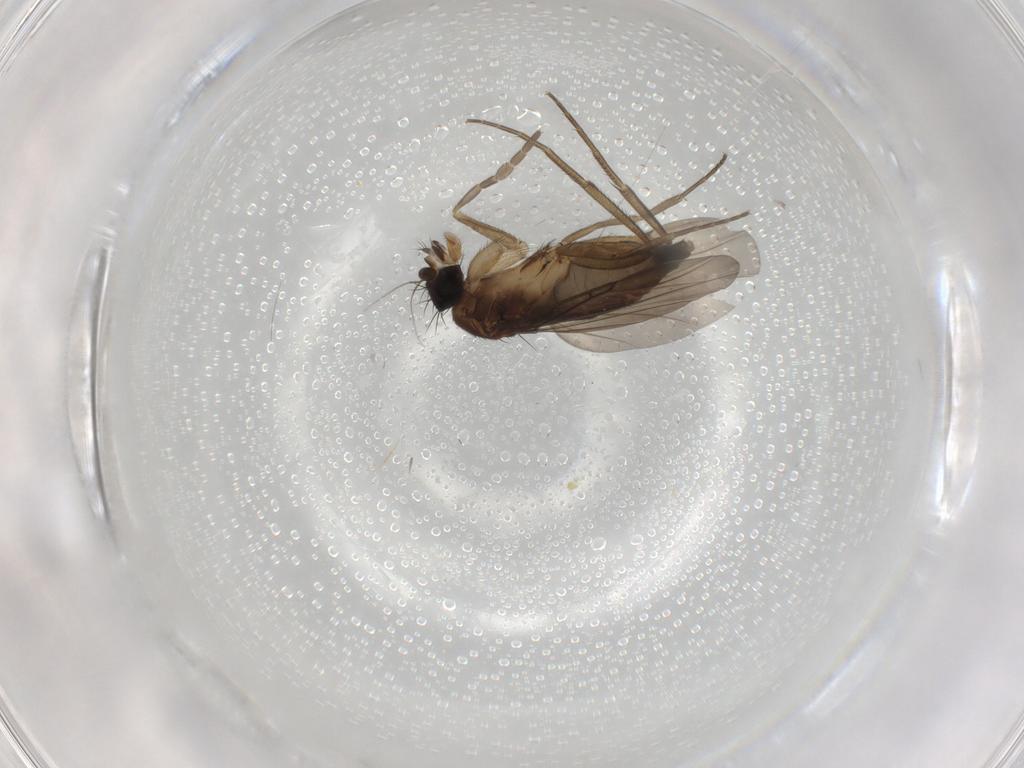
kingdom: Animalia
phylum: Arthropoda
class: Insecta
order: Diptera
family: Phoridae
